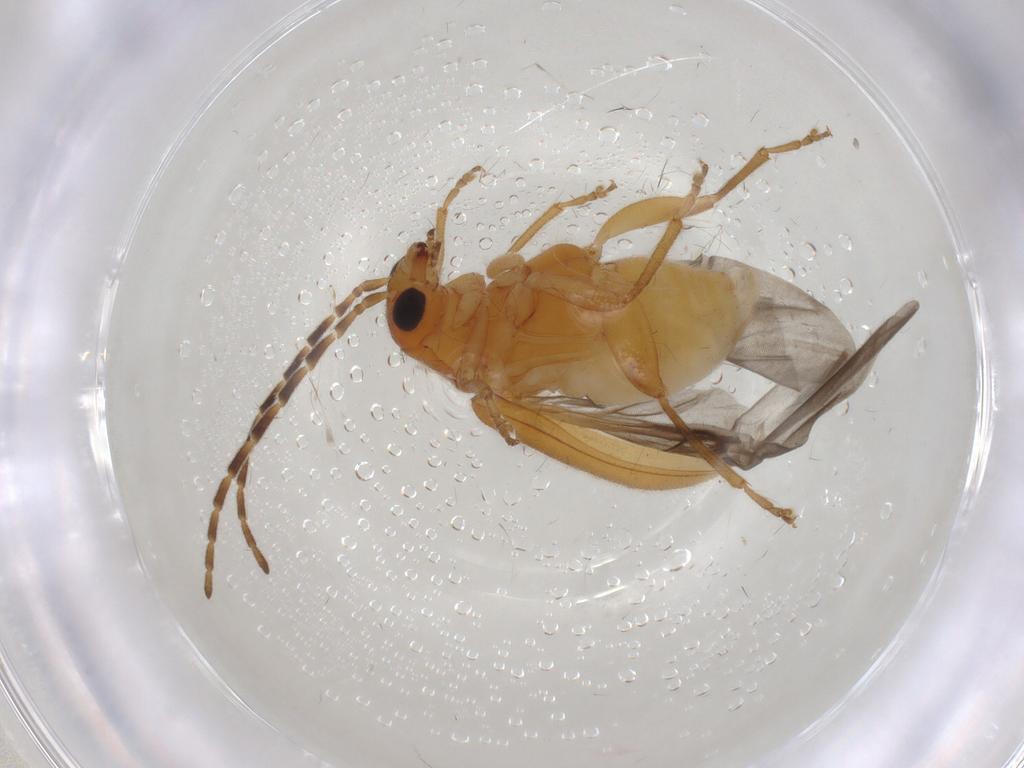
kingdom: Animalia
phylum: Arthropoda
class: Insecta
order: Coleoptera
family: Chrysomelidae
